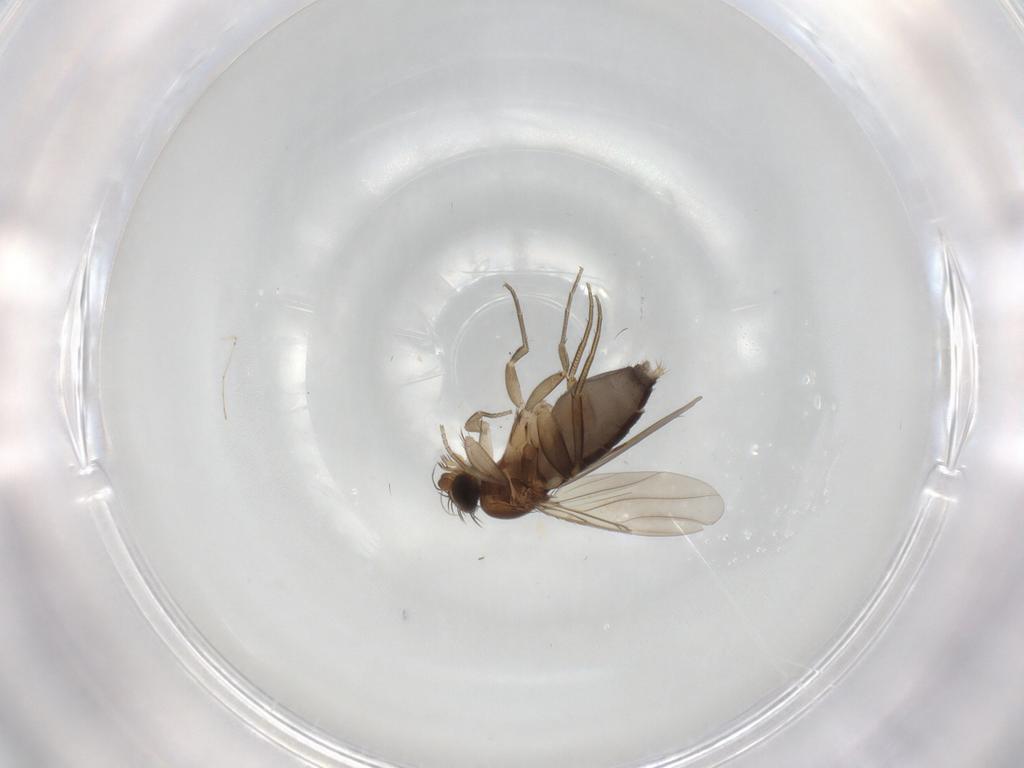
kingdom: Animalia
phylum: Arthropoda
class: Insecta
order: Diptera
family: Phoridae
